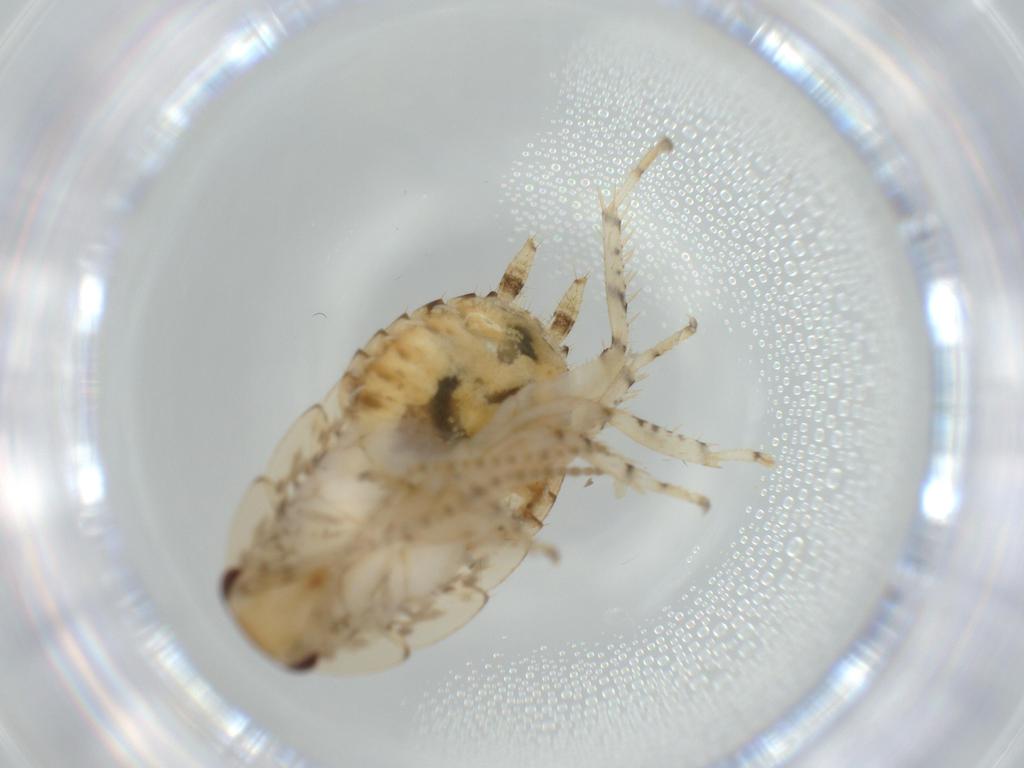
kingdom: Animalia
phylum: Arthropoda
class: Insecta
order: Blattodea
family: Ectobiidae
